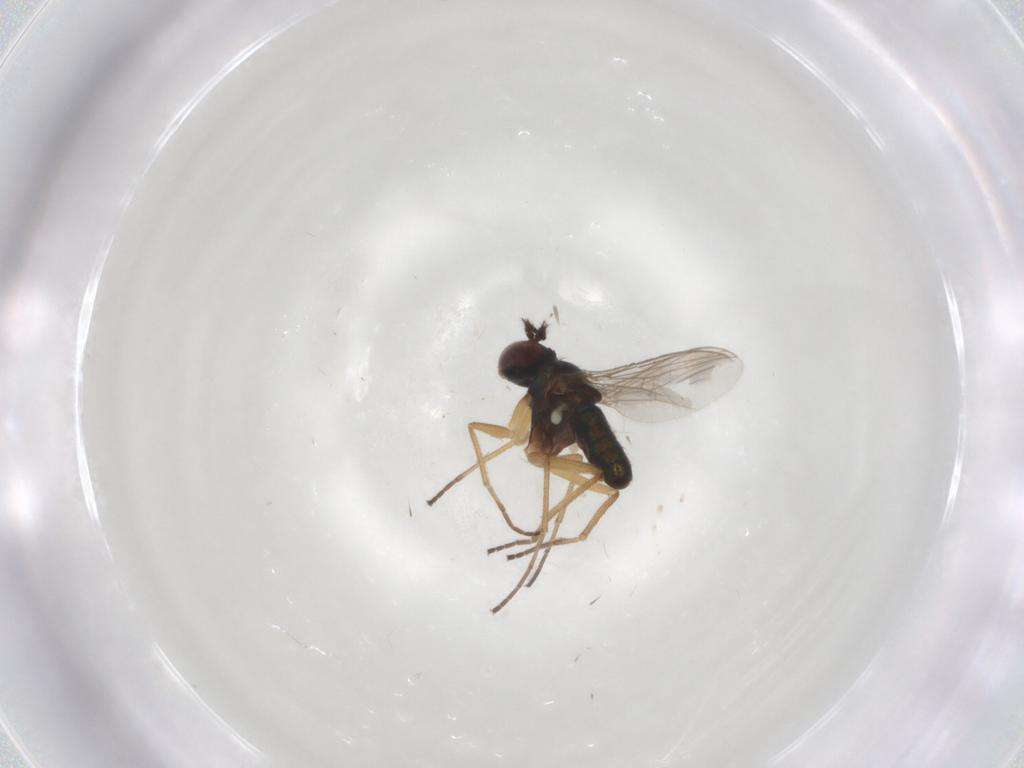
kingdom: Animalia
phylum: Arthropoda
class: Insecta
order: Diptera
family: Dolichopodidae
